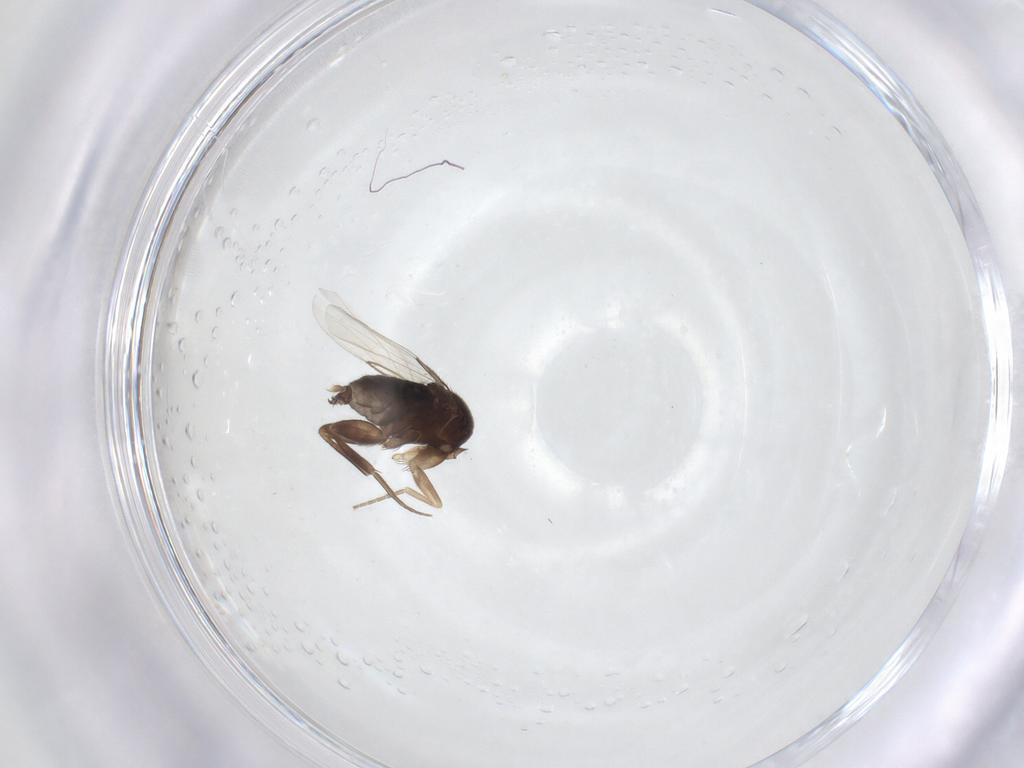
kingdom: Animalia
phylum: Arthropoda
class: Insecta
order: Diptera
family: Phoridae
